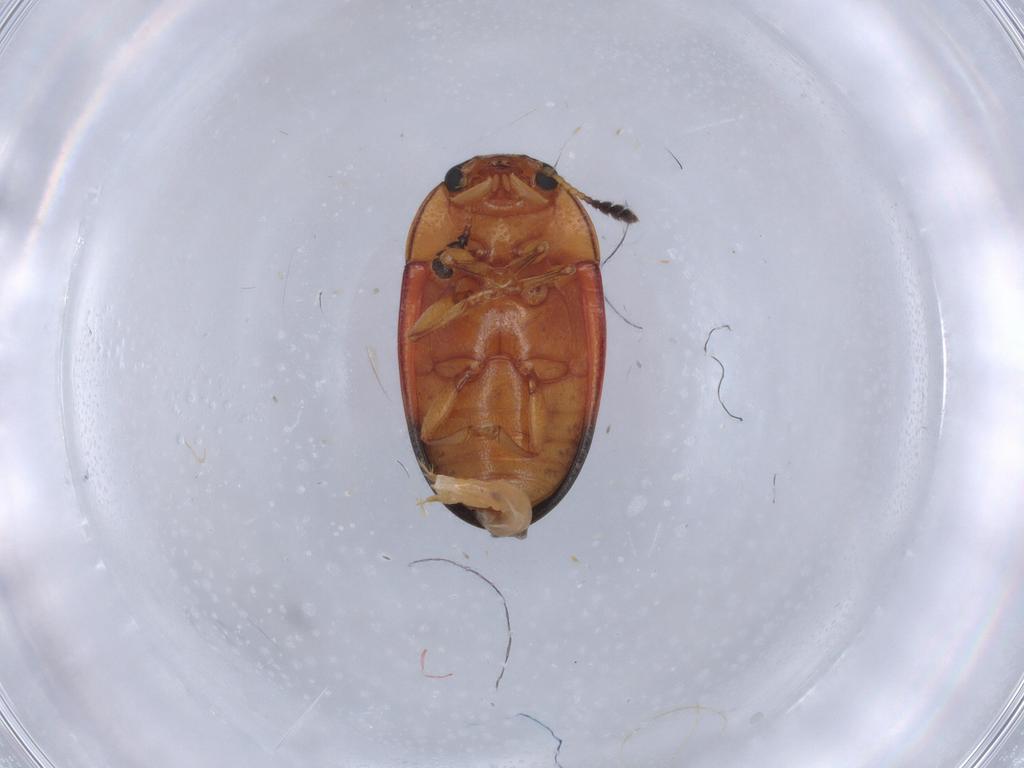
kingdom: Animalia
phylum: Arthropoda
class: Insecta
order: Coleoptera
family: Erotylidae
